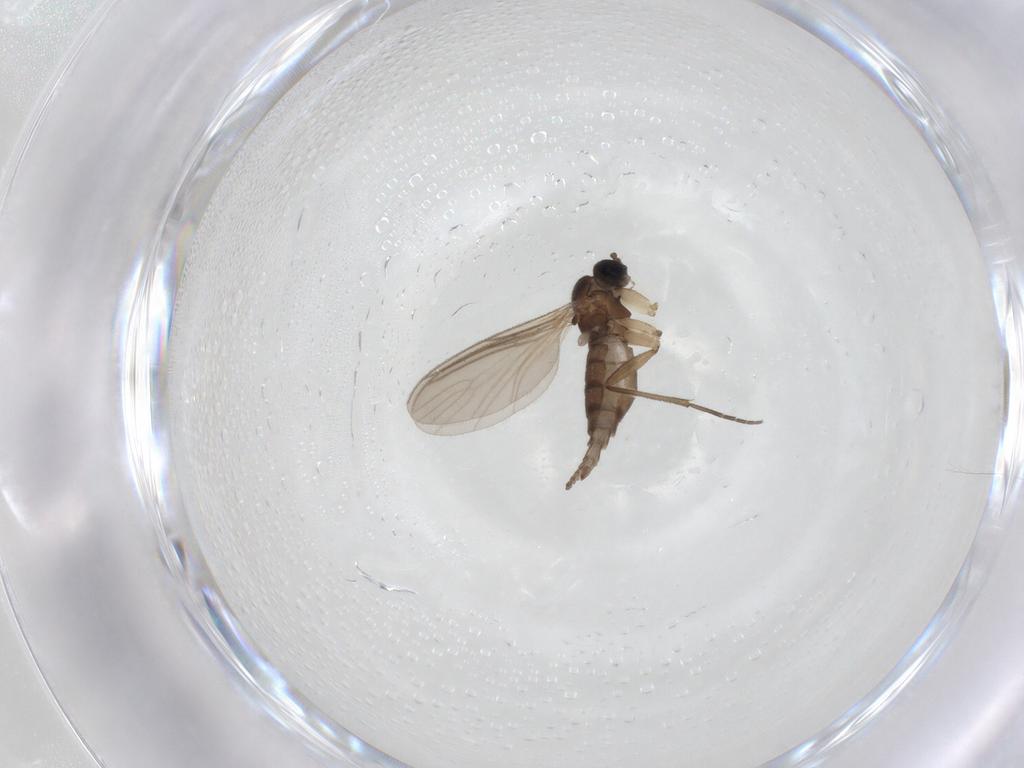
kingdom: Animalia
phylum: Arthropoda
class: Insecta
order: Diptera
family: Sciaridae
